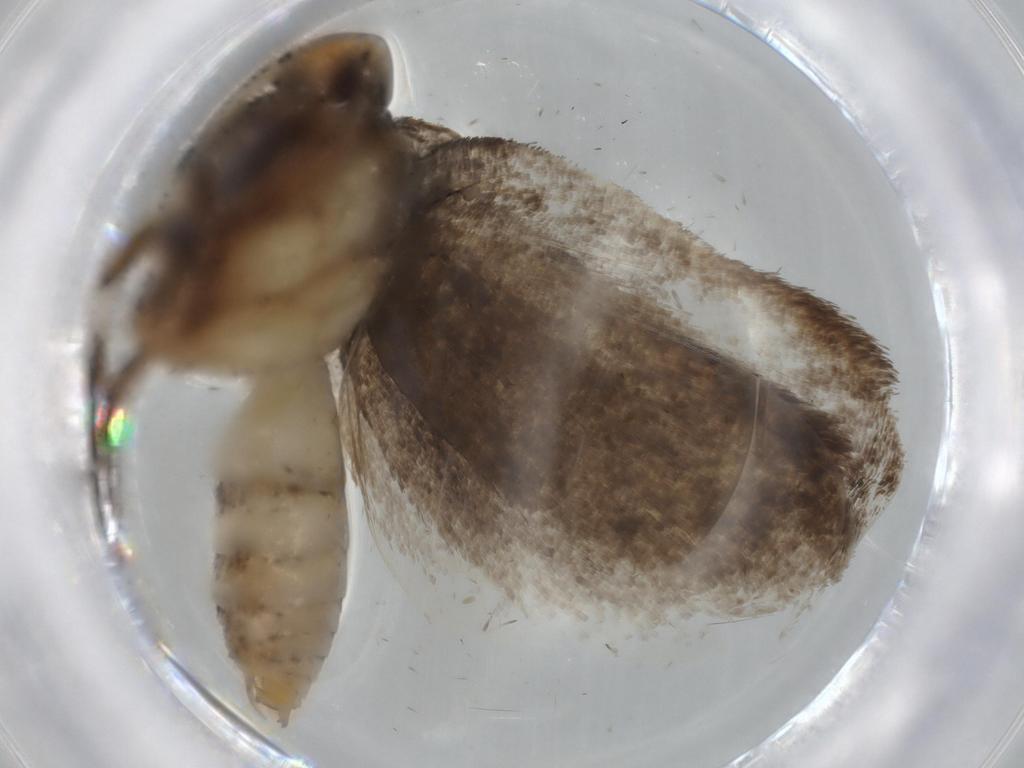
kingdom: Animalia
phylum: Arthropoda
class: Insecta
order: Lepidoptera
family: Oecophoridae
